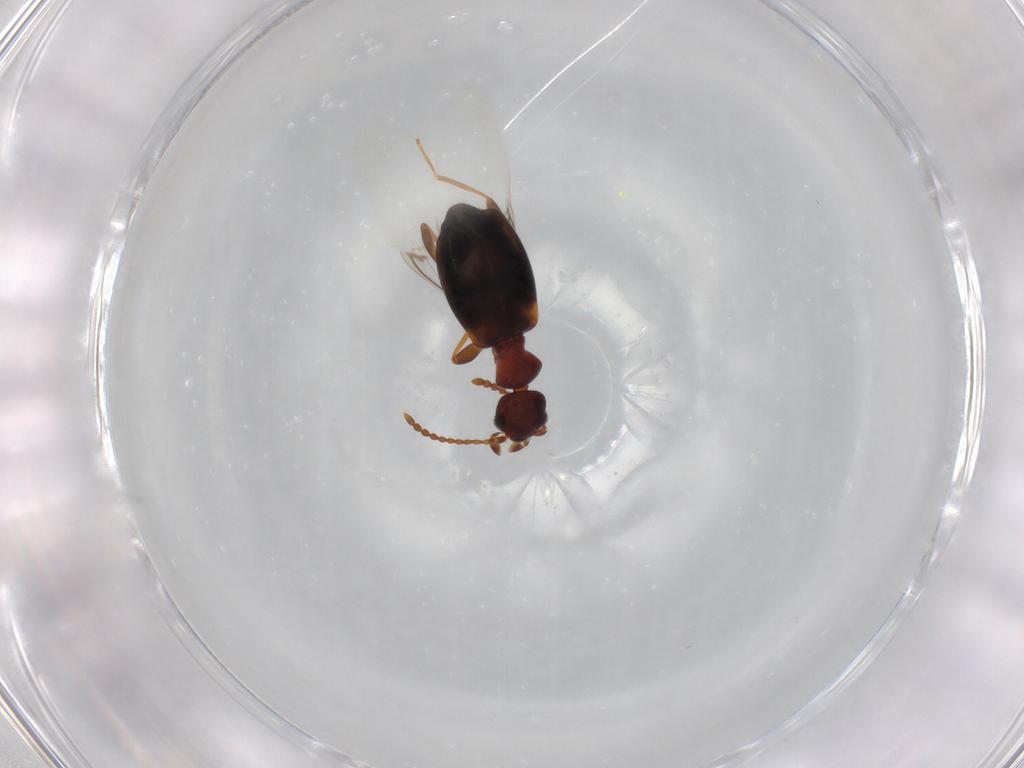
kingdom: Animalia
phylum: Arthropoda
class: Insecta
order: Coleoptera
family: Anthicidae
